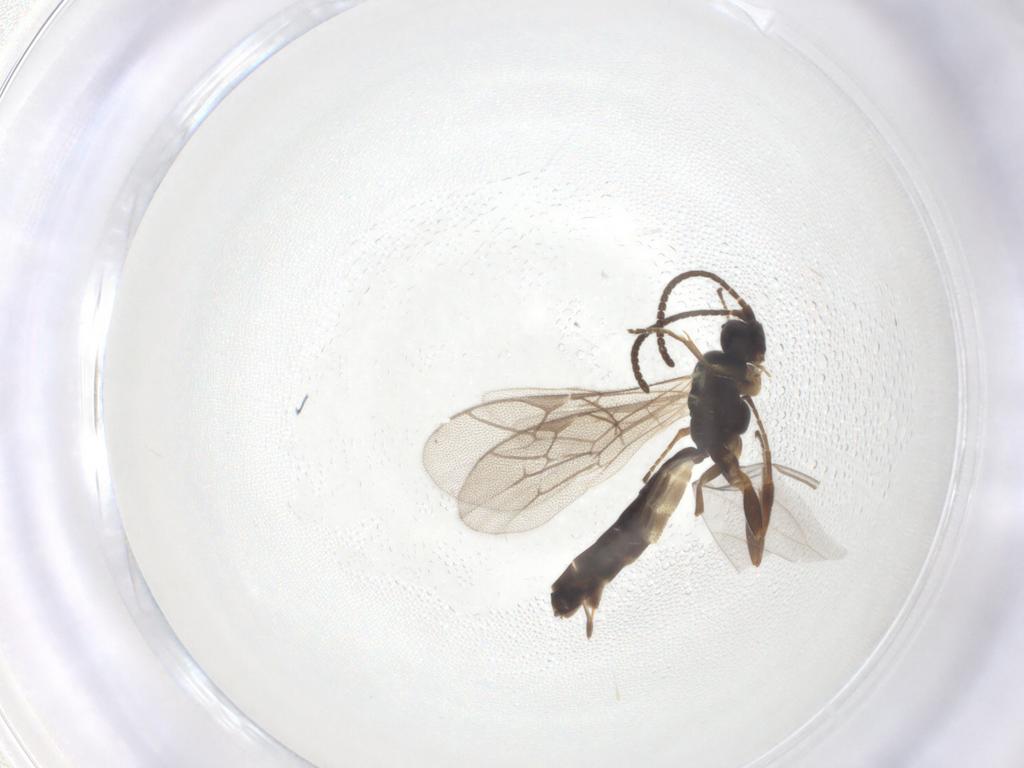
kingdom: Animalia
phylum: Arthropoda
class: Insecta
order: Hymenoptera
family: Ichneumonidae
